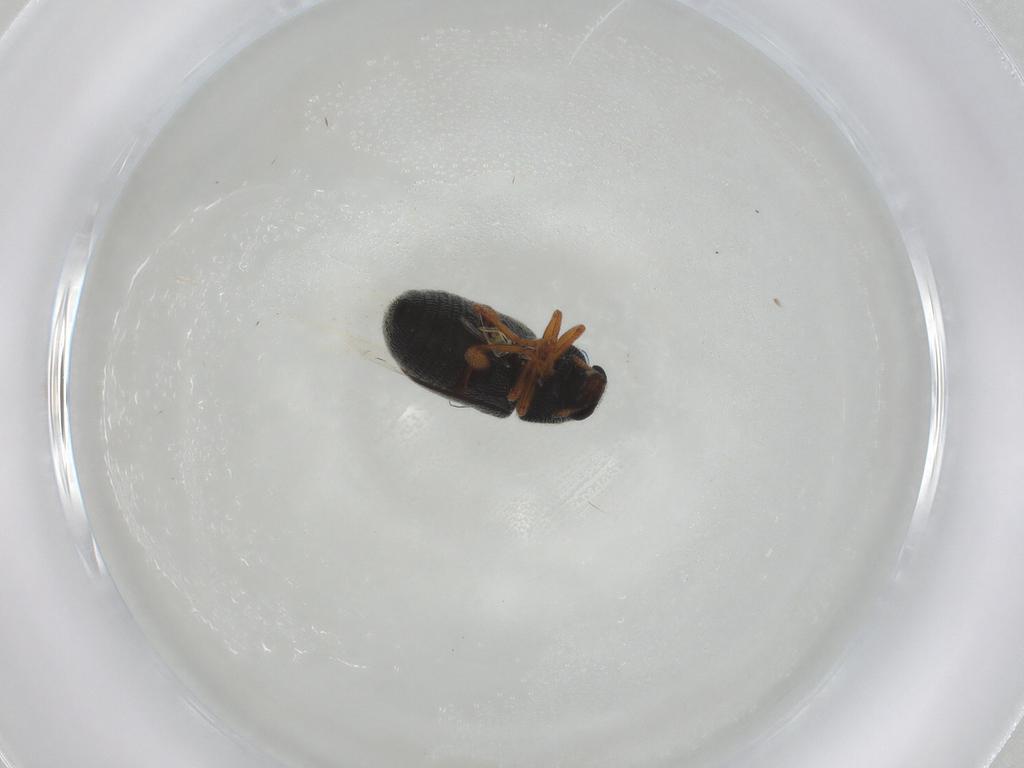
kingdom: Animalia
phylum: Arthropoda
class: Insecta
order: Coleoptera
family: Anthribidae
